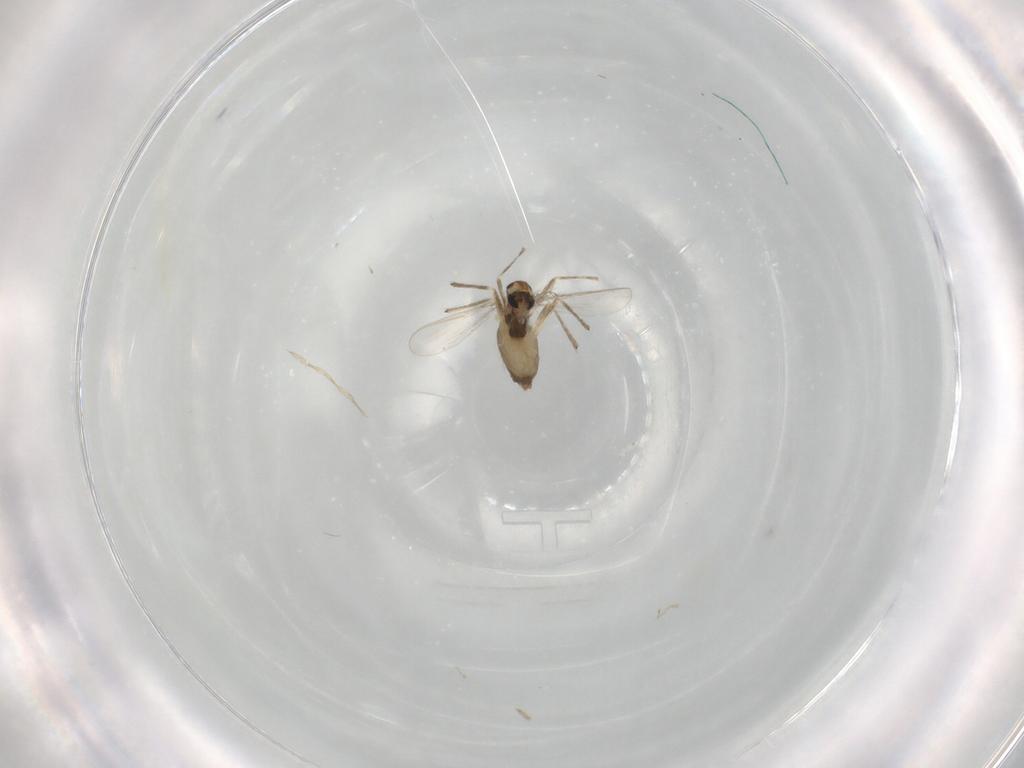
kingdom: Animalia
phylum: Arthropoda
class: Insecta
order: Diptera
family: Chironomidae
